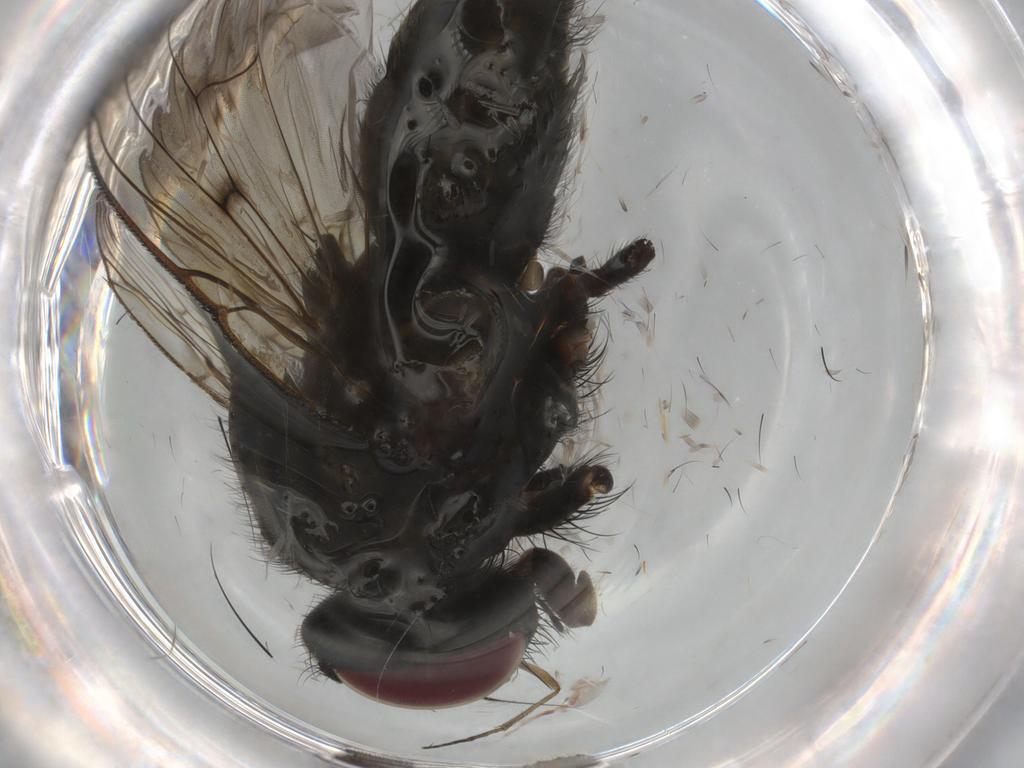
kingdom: Animalia
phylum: Arthropoda
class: Insecta
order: Diptera
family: Muscidae
